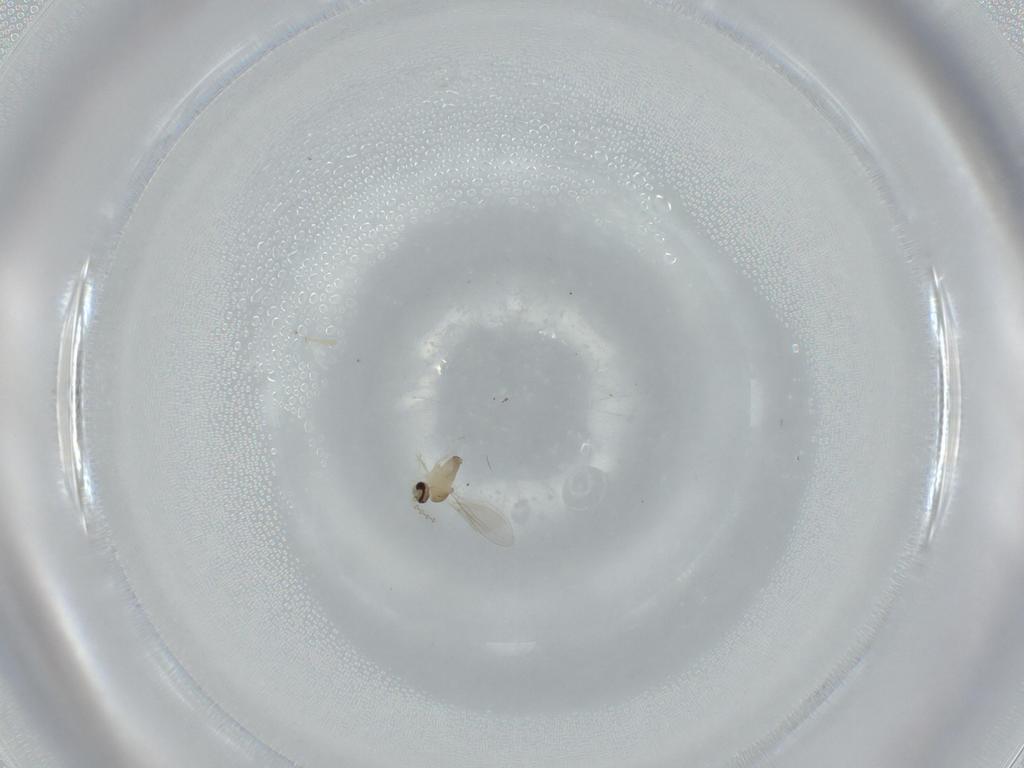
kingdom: Animalia
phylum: Arthropoda
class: Insecta
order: Diptera
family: Cecidomyiidae
